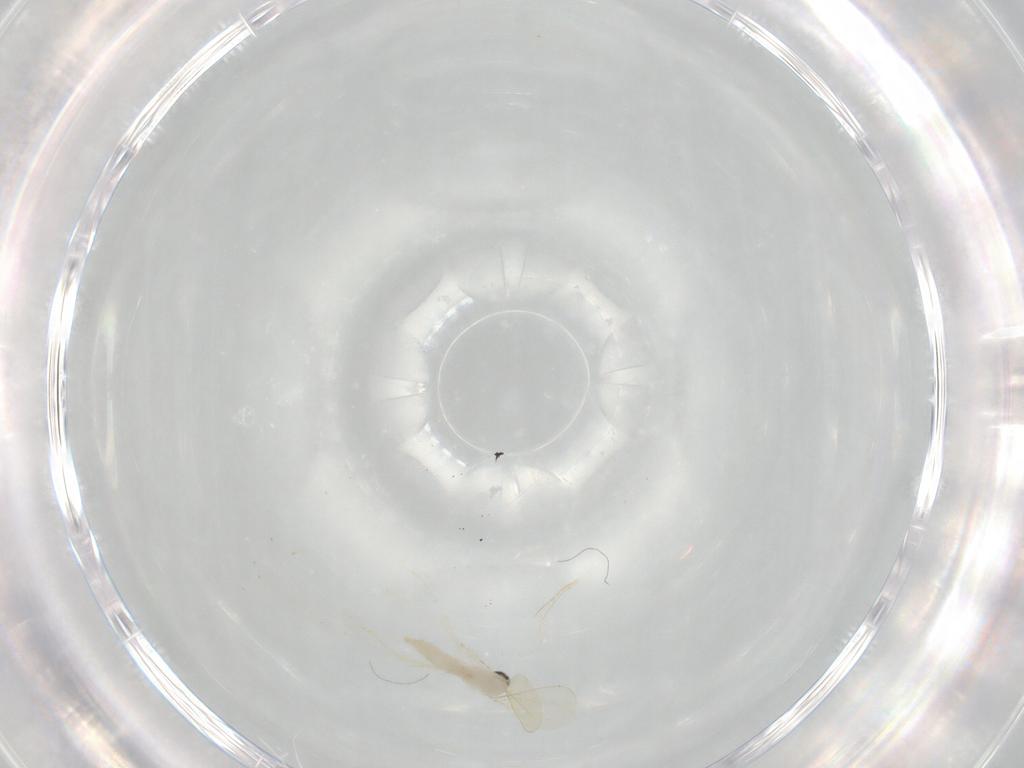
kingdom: Animalia
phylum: Arthropoda
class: Insecta
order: Diptera
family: Cecidomyiidae
